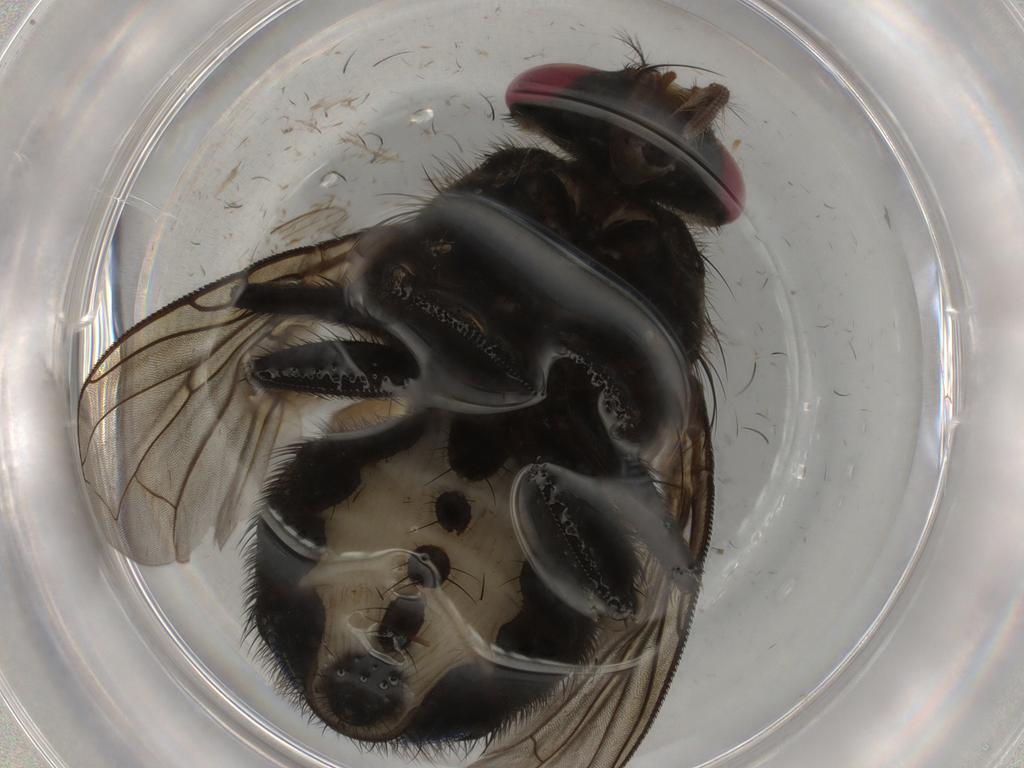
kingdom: Animalia
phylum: Arthropoda
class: Insecta
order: Diptera
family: Calliphoridae
